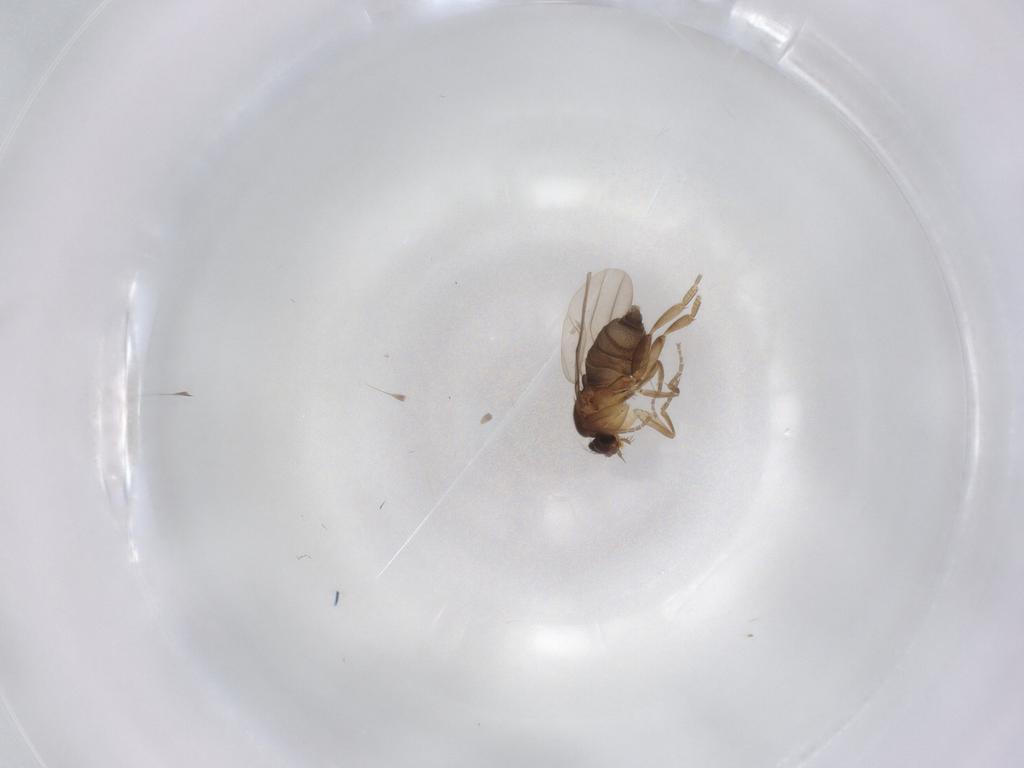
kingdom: Animalia
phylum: Arthropoda
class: Insecta
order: Diptera
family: Phoridae
